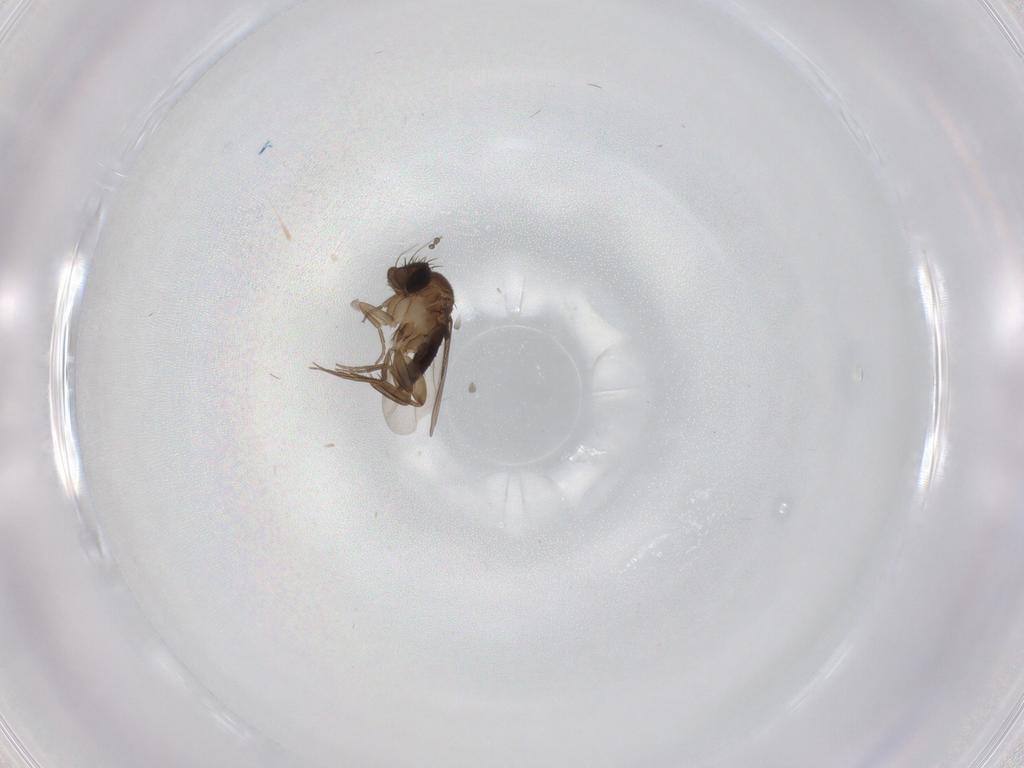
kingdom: Animalia
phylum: Arthropoda
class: Insecta
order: Diptera
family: Phoridae
